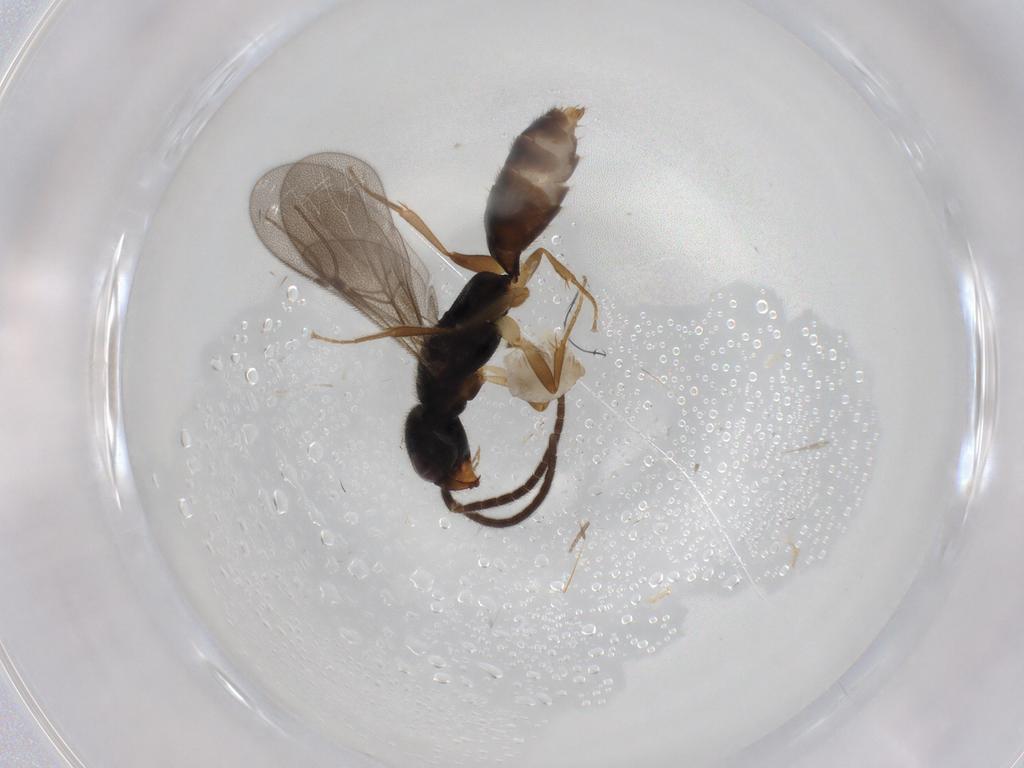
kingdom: Animalia
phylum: Arthropoda
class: Insecta
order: Hymenoptera
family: Bethylidae
